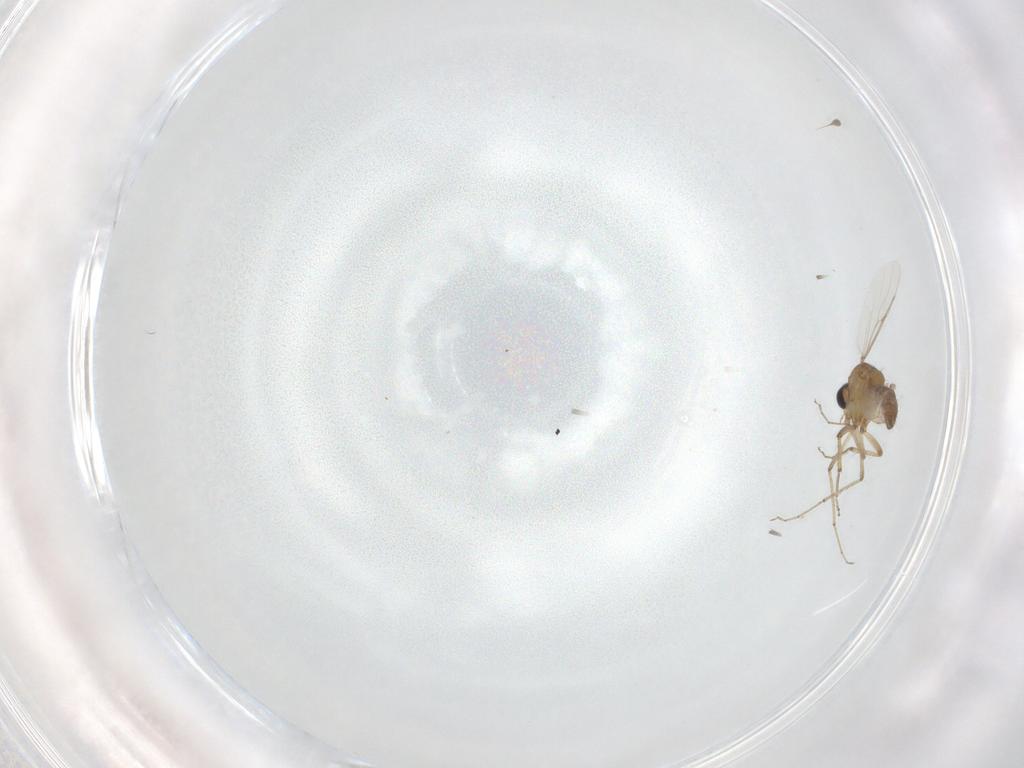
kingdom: Animalia
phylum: Arthropoda
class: Insecta
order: Diptera
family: Ceratopogonidae
